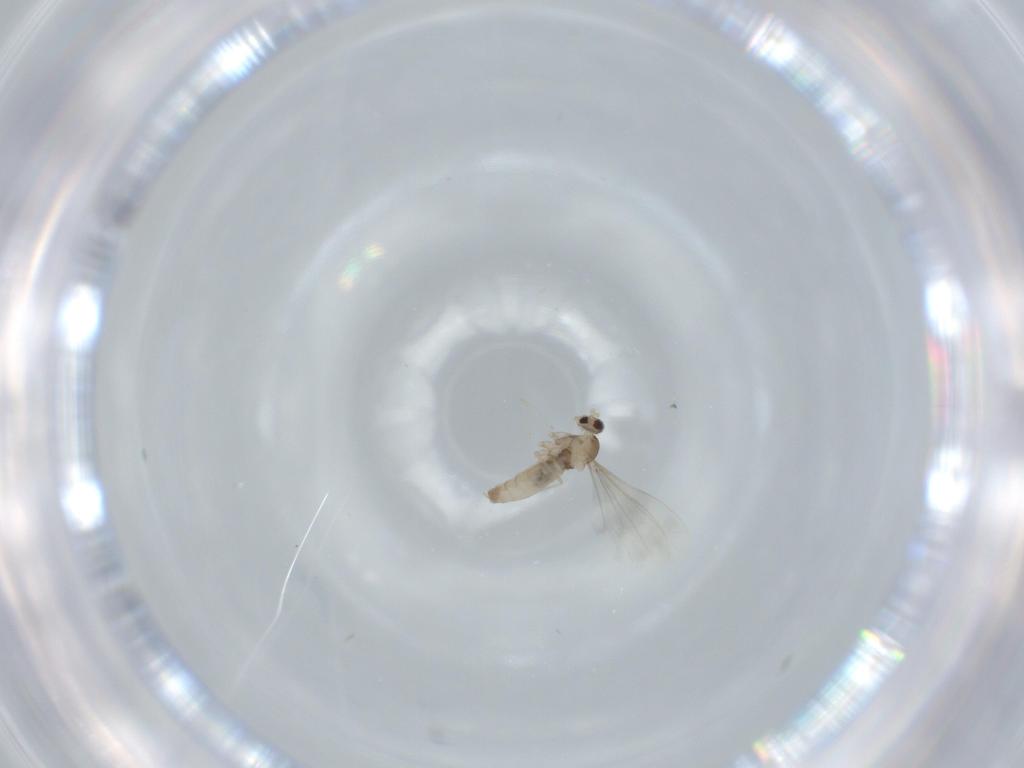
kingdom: Animalia
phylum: Arthropoda
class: Insecta
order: Diptera
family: Cecidomyiidae
